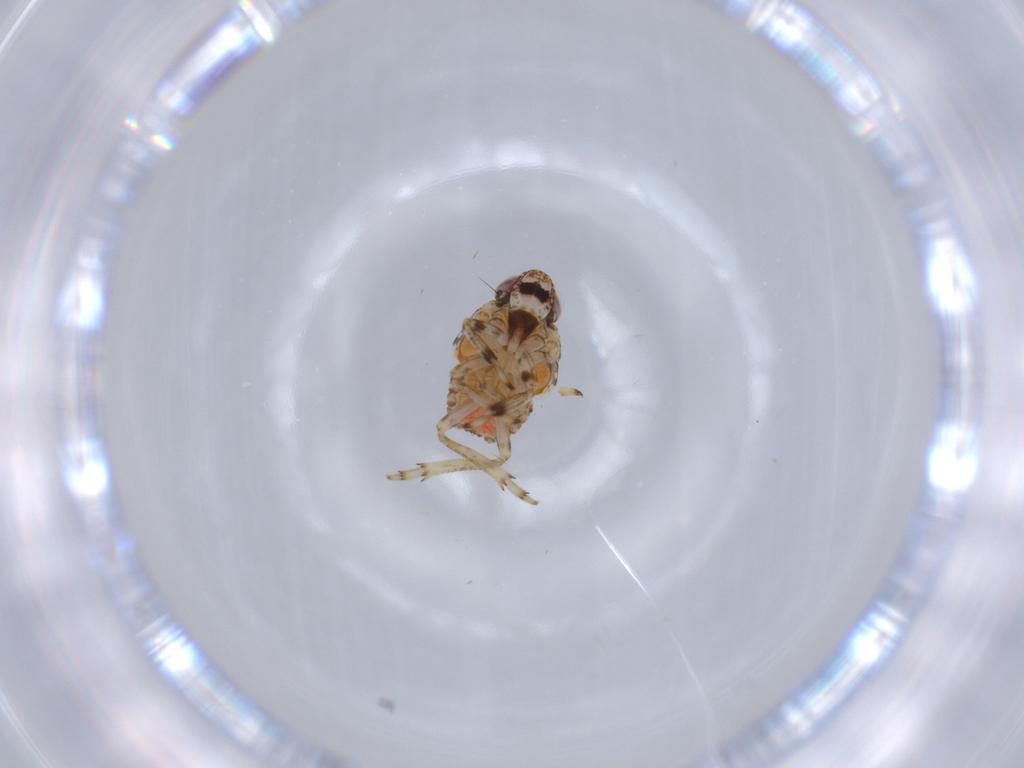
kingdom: Animalia
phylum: Arthropoda
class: Insecta
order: Hemiptera
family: Issidae
